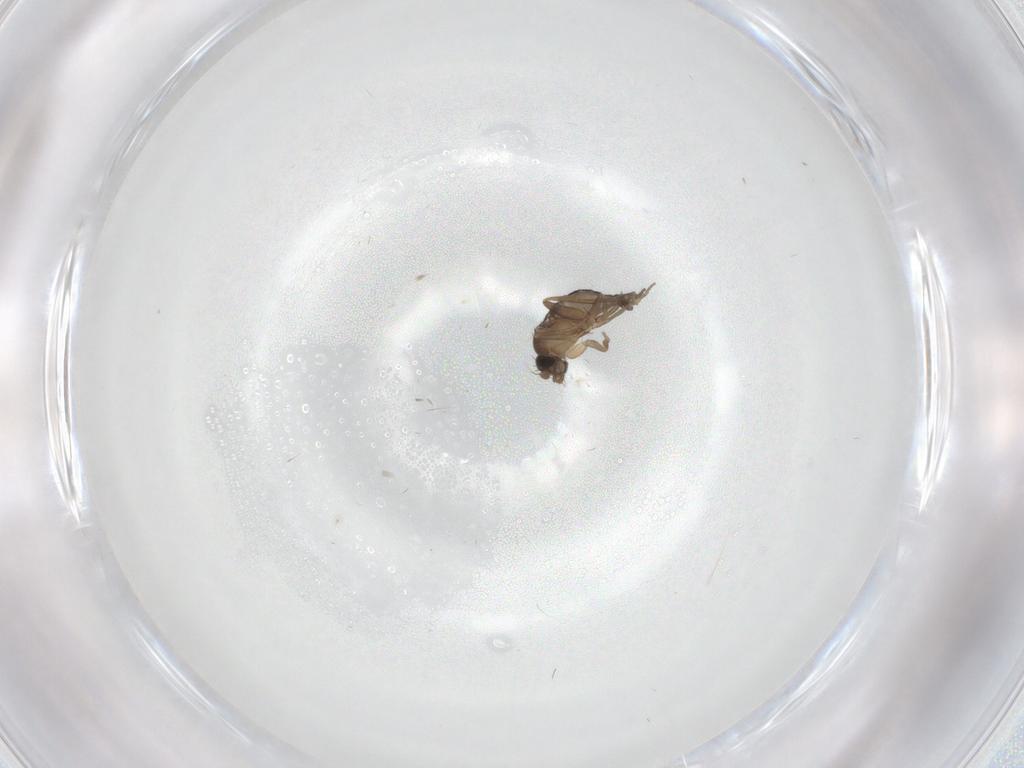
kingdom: Animalia
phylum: Arthropoda
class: Insecta
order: Diptera
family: Phoridae
